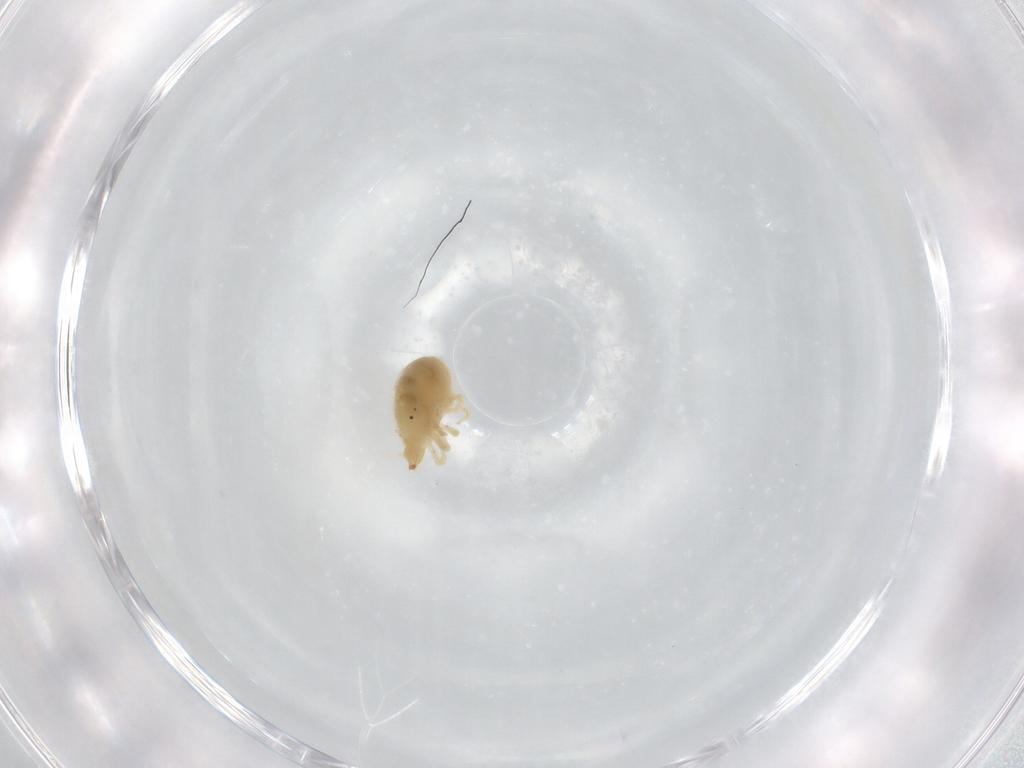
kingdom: Animalia
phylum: Arthropoda
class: Arachnida
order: Trombidiformes
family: Bdellidae
